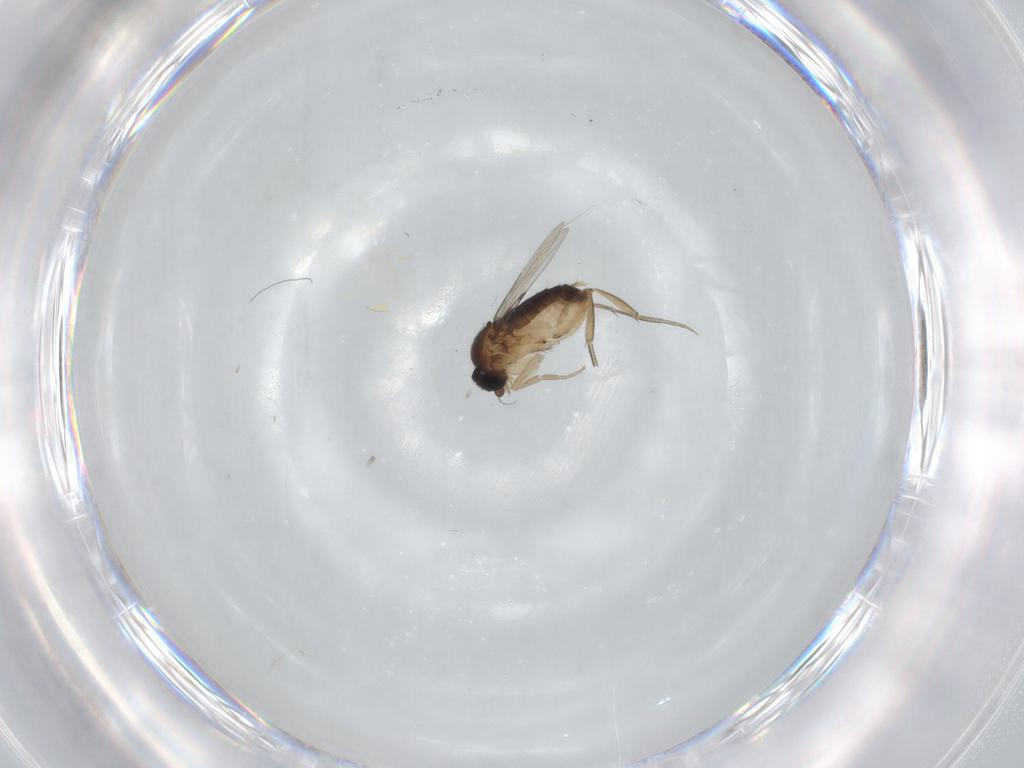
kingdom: Animalia
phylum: Arthropoda
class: Insecta
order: Diptera
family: Phoridae
